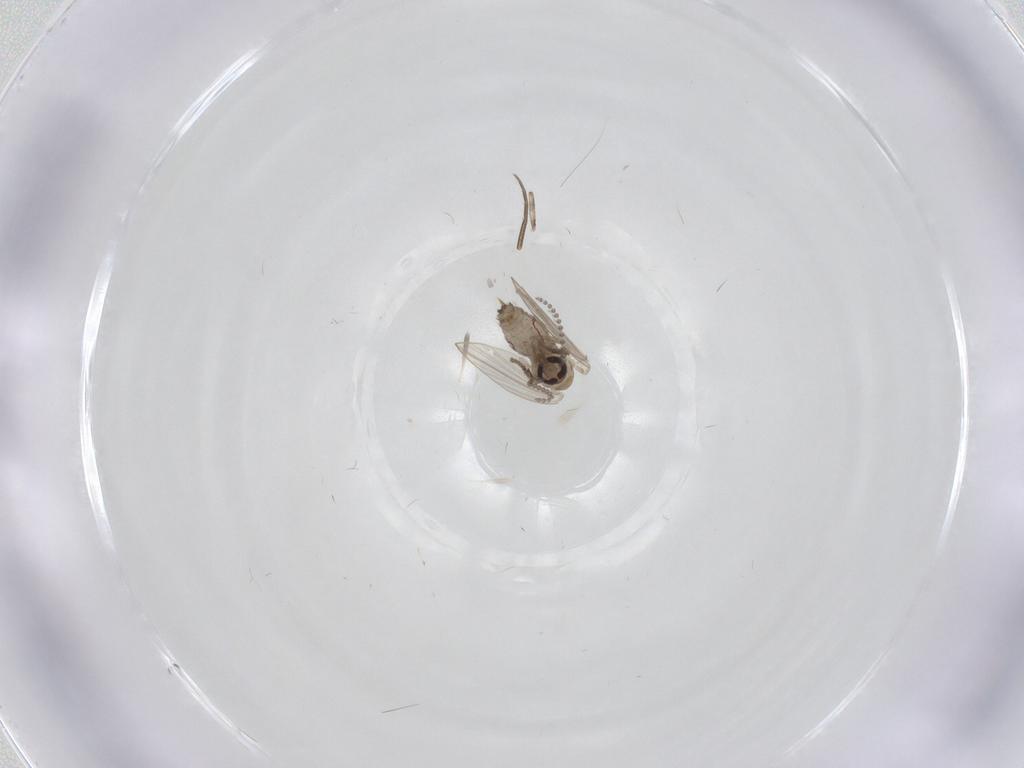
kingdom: Animalia
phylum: Arthropoda
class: Insecta
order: Diptera
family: Psychodidae
